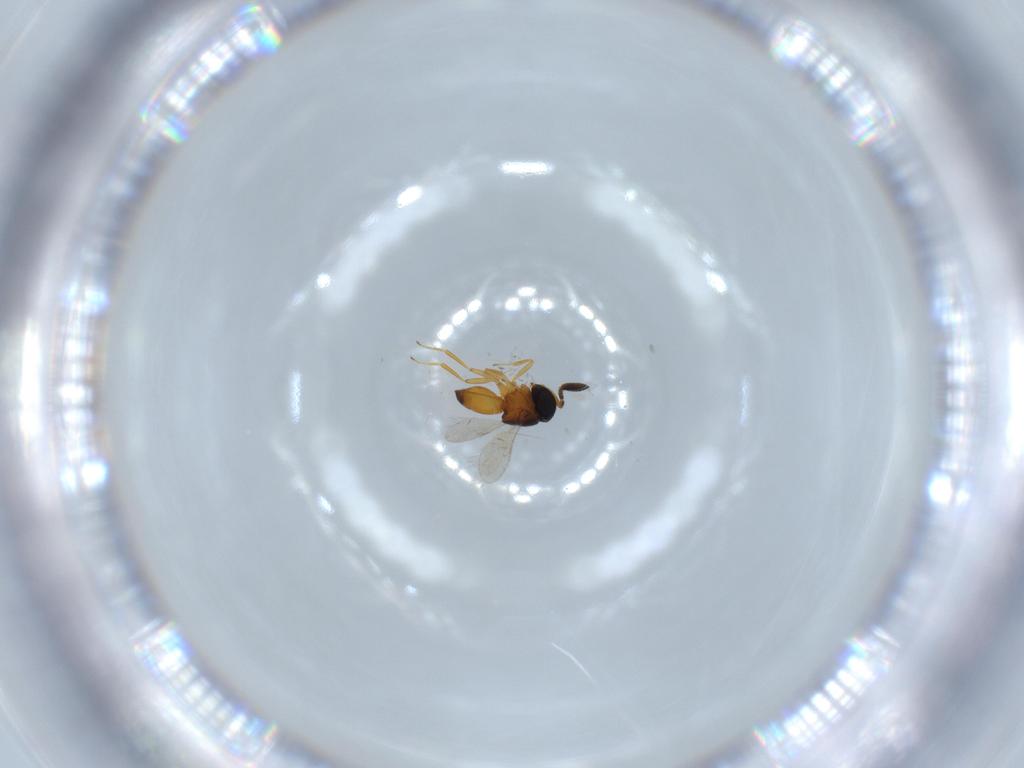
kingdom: Animalia
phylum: Arthropoda
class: Insecta
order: Hymenoptera
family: Scelionidae
